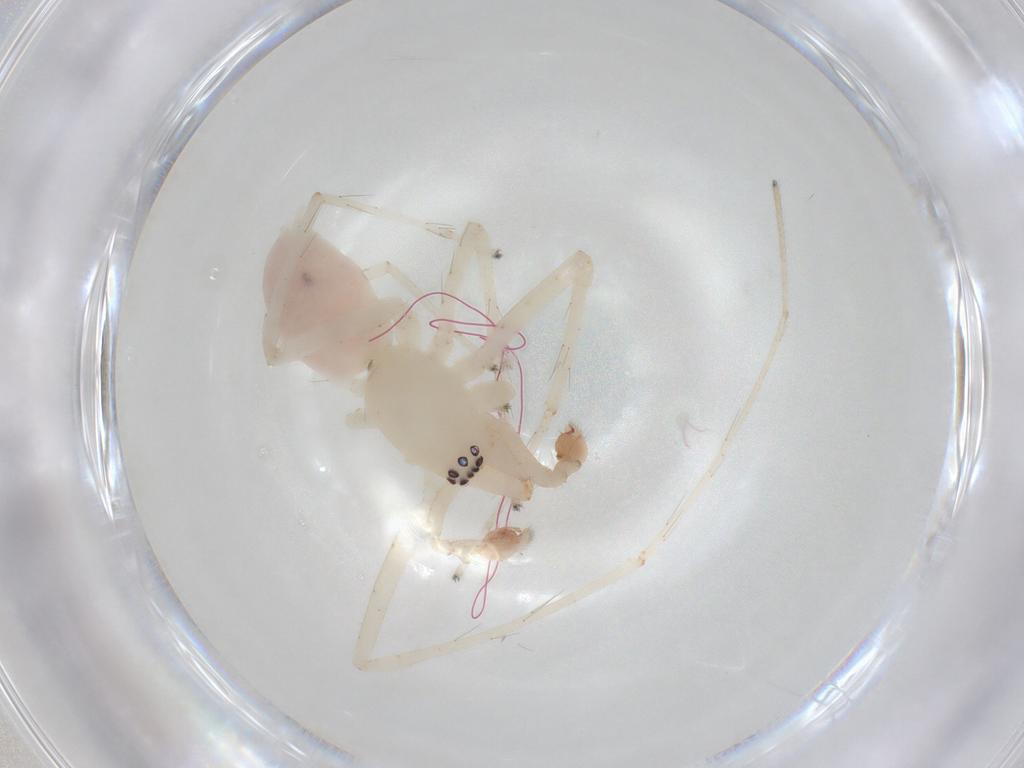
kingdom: Animalia
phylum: Arthropoda
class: Arachnida
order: Araneae
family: Anyphaenidae
